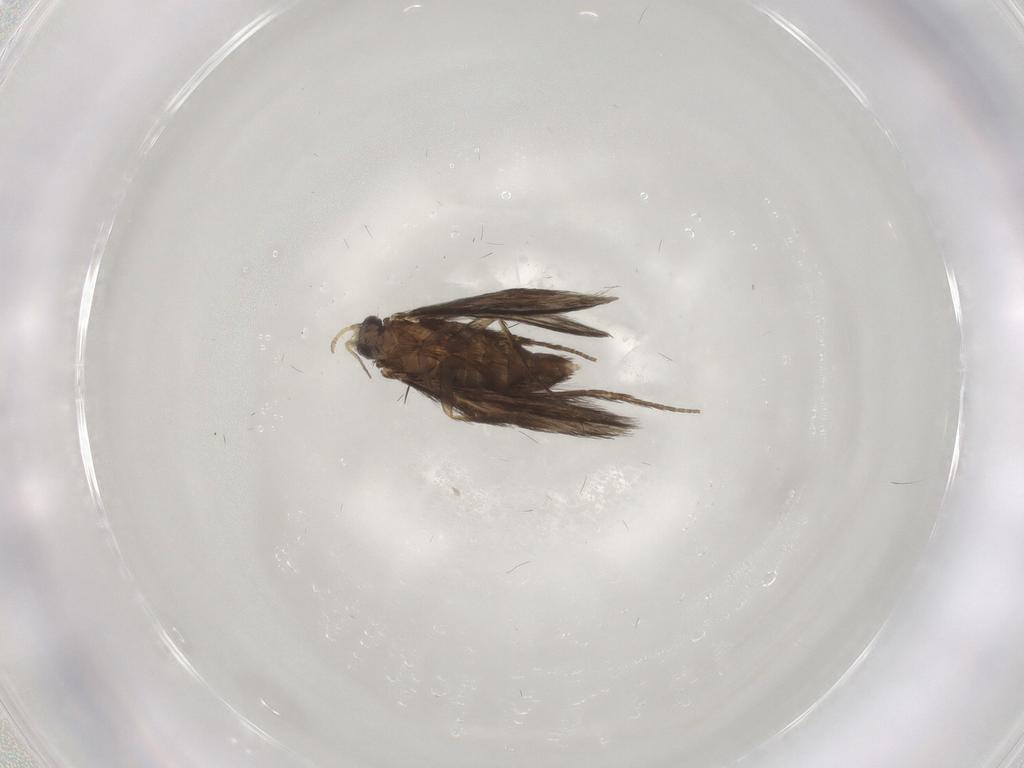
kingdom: Animalia
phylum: Arthropoda
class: Insecta
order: Trichoptera
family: Hydroptilidae
